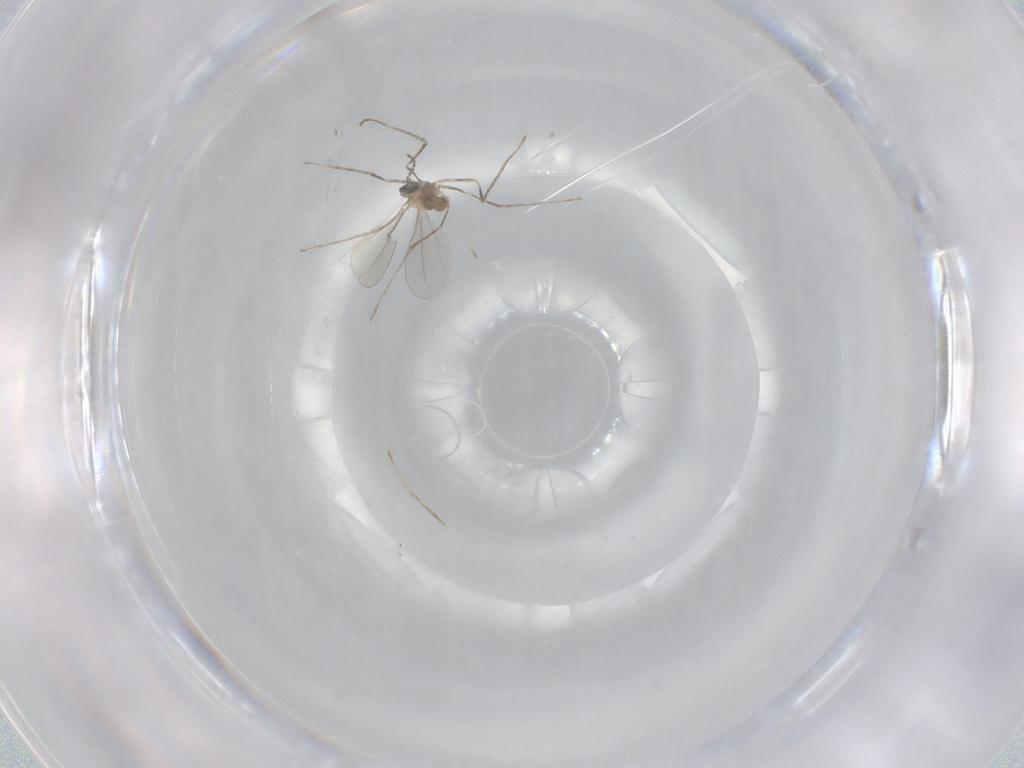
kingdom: Animalia
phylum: Arthropoda
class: Insecta
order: Diptera
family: Cecidomyiidae
